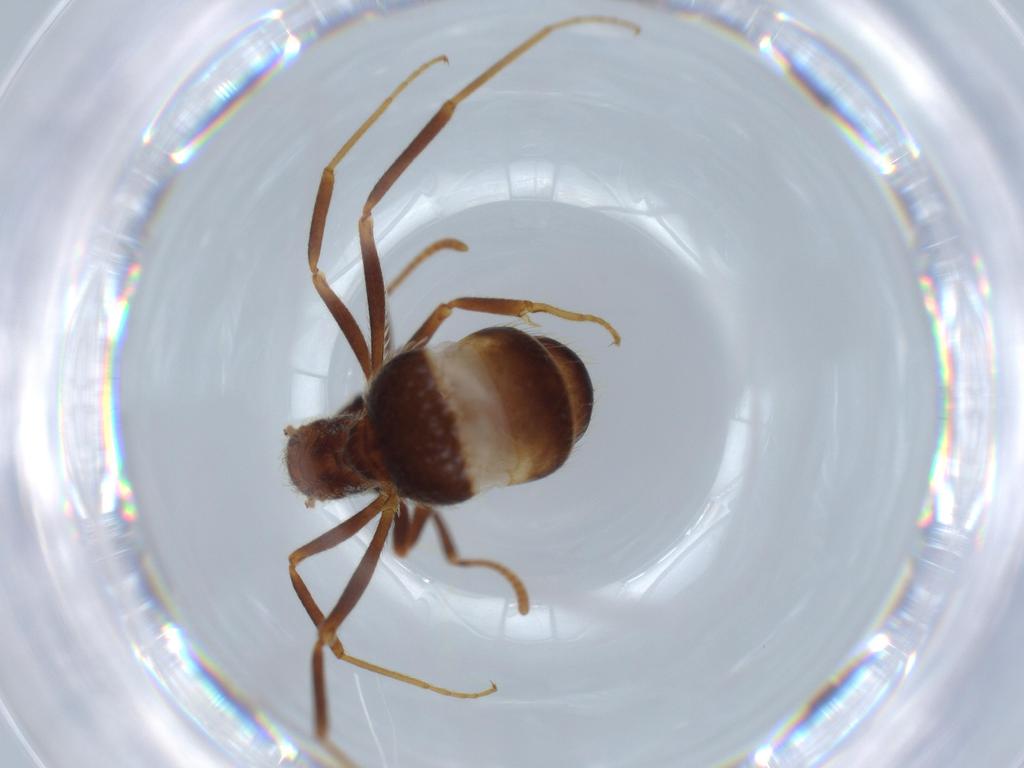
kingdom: Animalia
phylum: Arthropoda
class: Insecta
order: Hymenoptera
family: Formicidae
